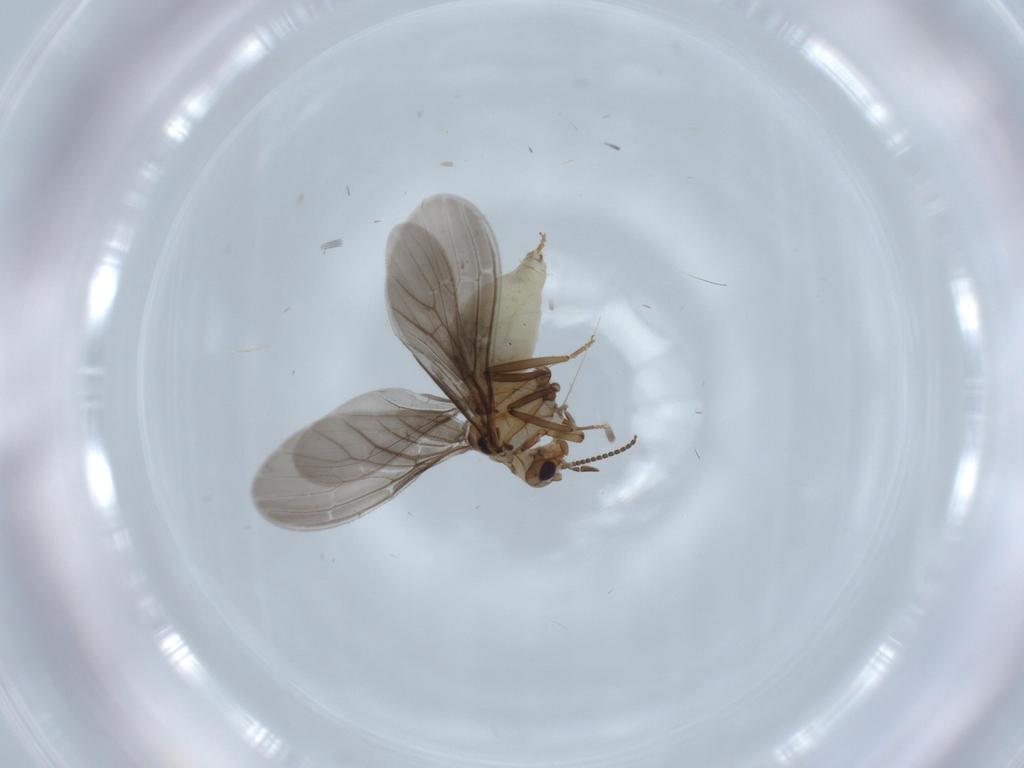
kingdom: Animalia
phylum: Arthropoda
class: Insecta
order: Neuroptera
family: Coniopterygidae
